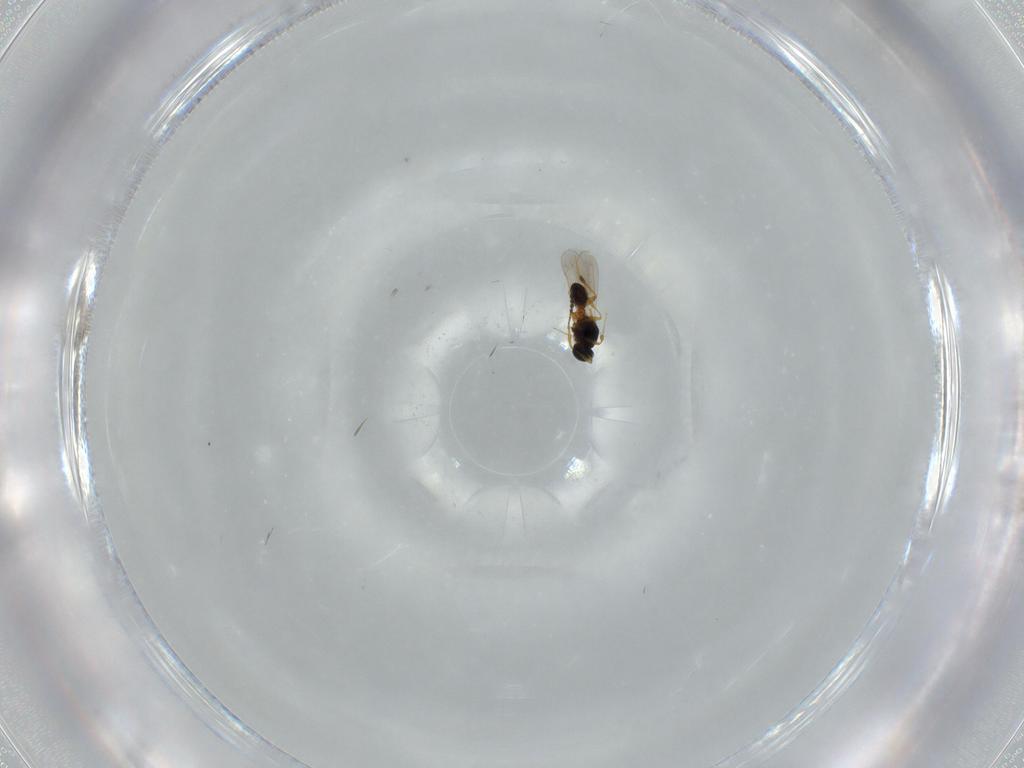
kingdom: Animalia
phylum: Arthropoda
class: Insecta
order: Hymenoptera
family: Platygastridae
